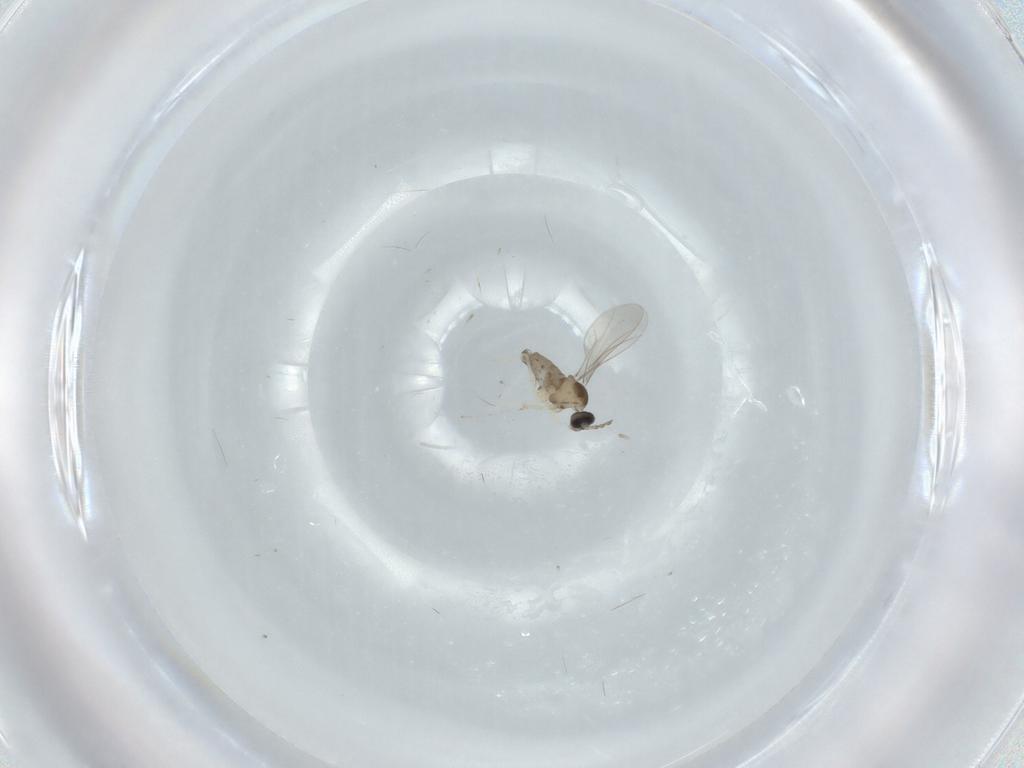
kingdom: Animalia
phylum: Arthropoda
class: Insecta
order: Diptera
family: Cecidomyiidae
